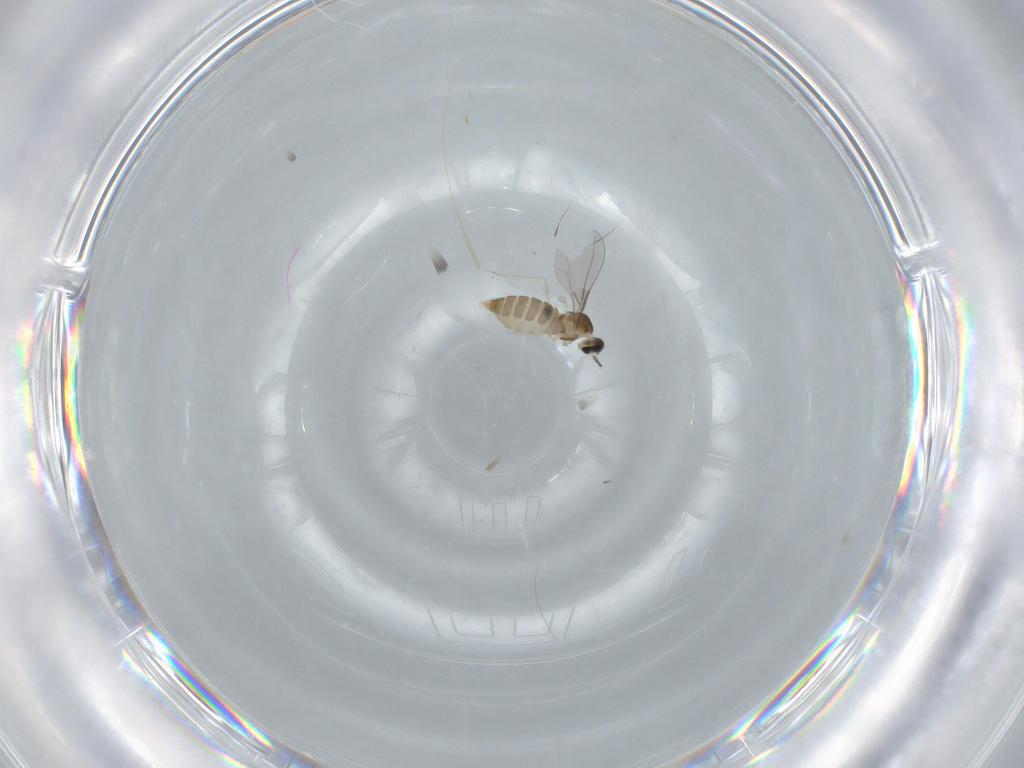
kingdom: Animalia
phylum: Arthropoda
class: Insecta
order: Diptera
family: Cecidomyiidae
